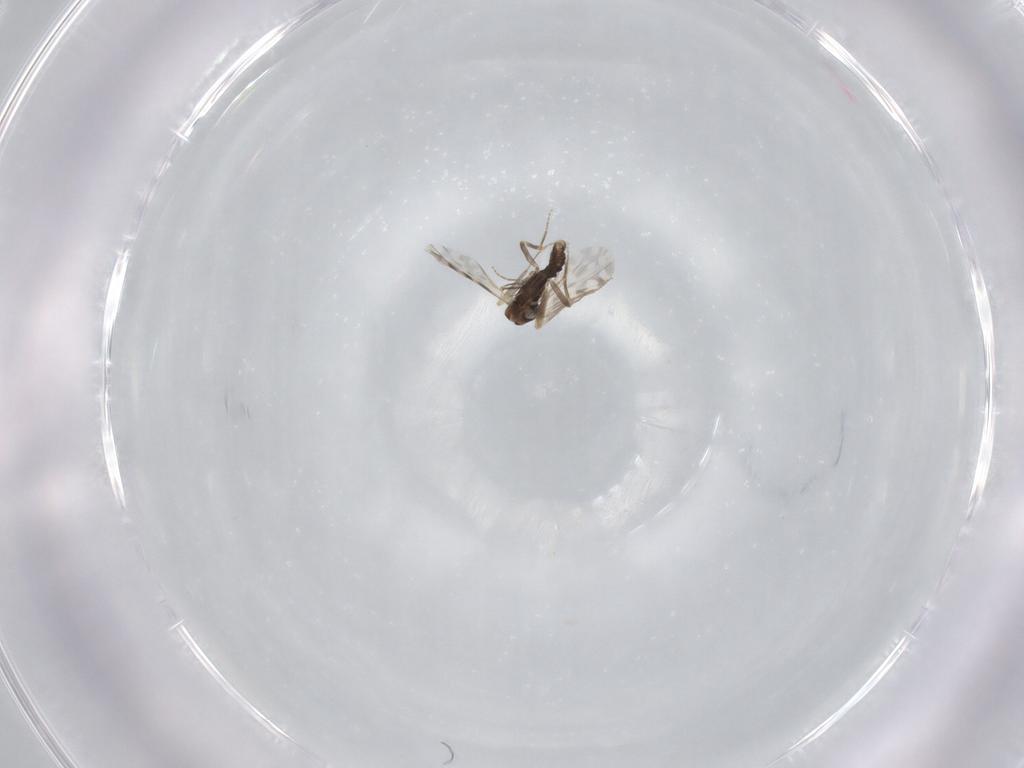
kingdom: Animalia
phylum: Arthropoda
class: Insecta
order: Diptera
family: Ceratopogonidae
